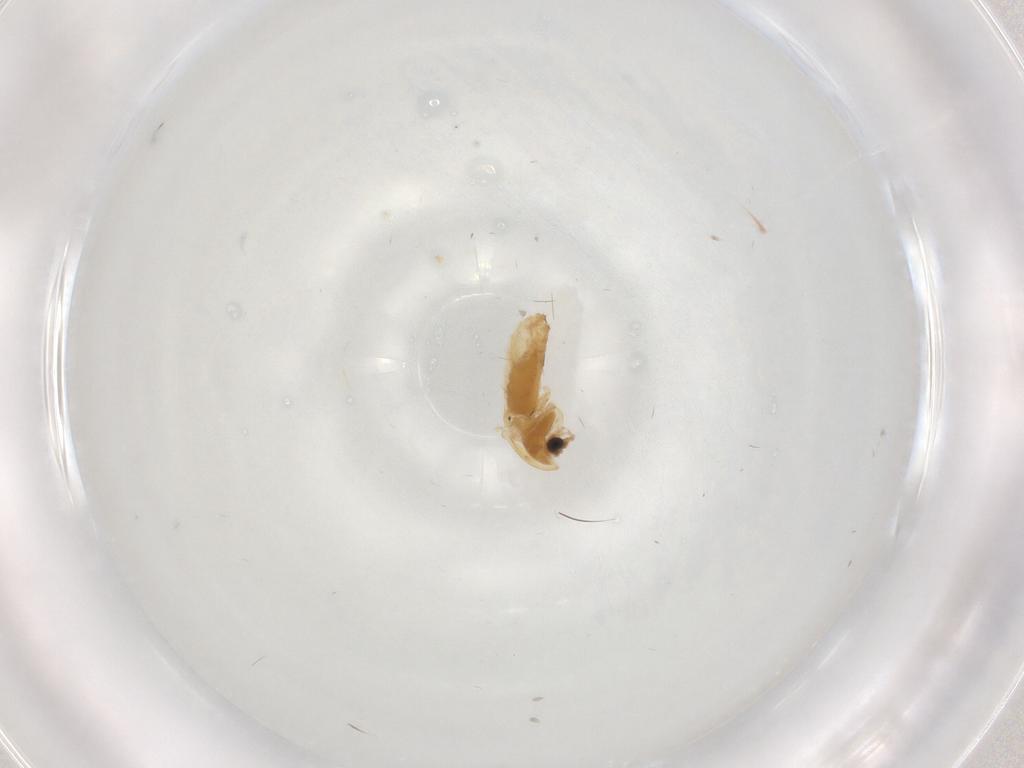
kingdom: Animalia
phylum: Arthropoda
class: Insecta
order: Diptera
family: Chironomidae
